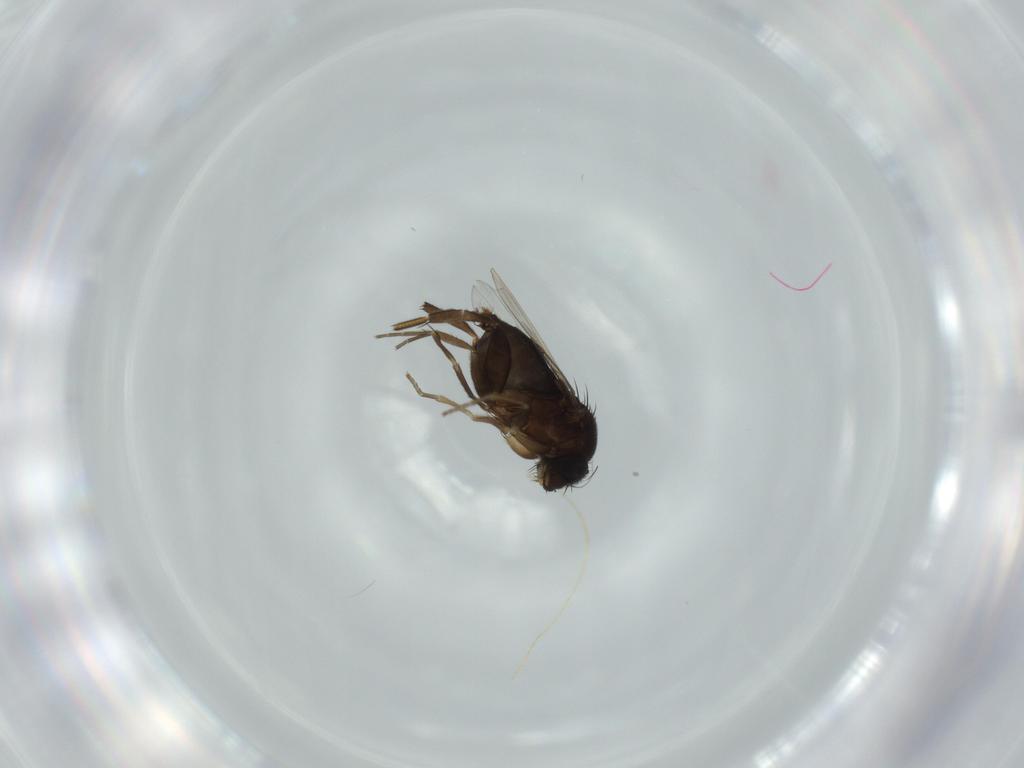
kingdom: Animalia
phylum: Arthropoda
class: Insecta
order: Diptera
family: Phoridae
